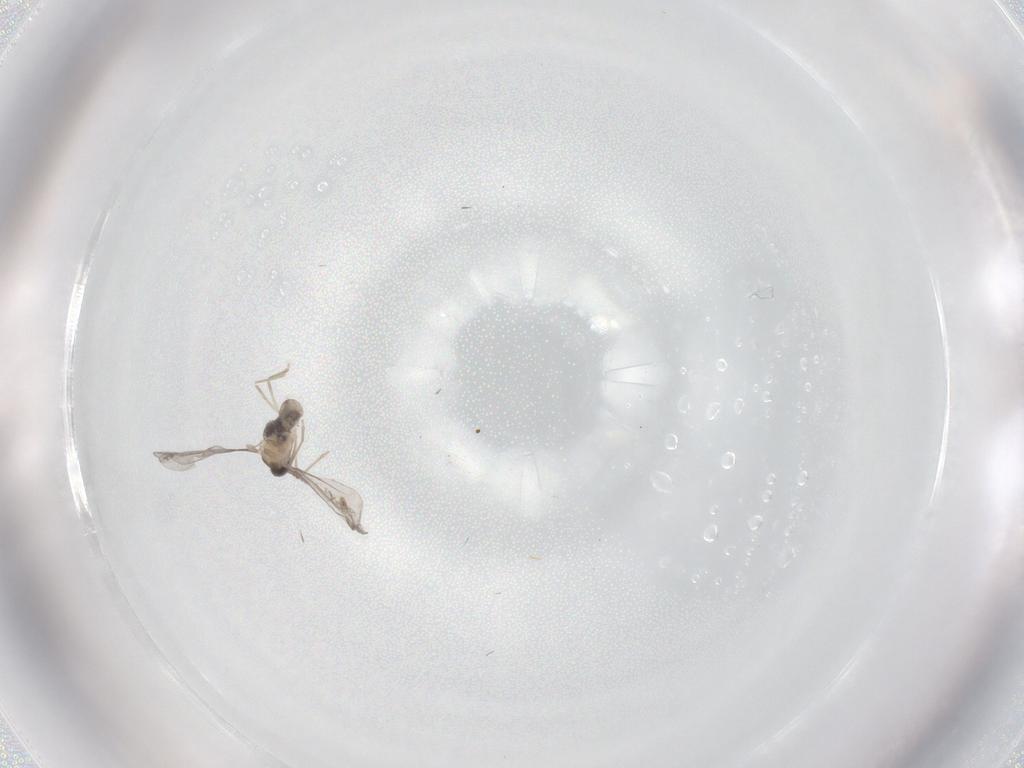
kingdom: Animalia
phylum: Arthropoda
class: Insecta
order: Diptera
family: Cecidomyiidae
